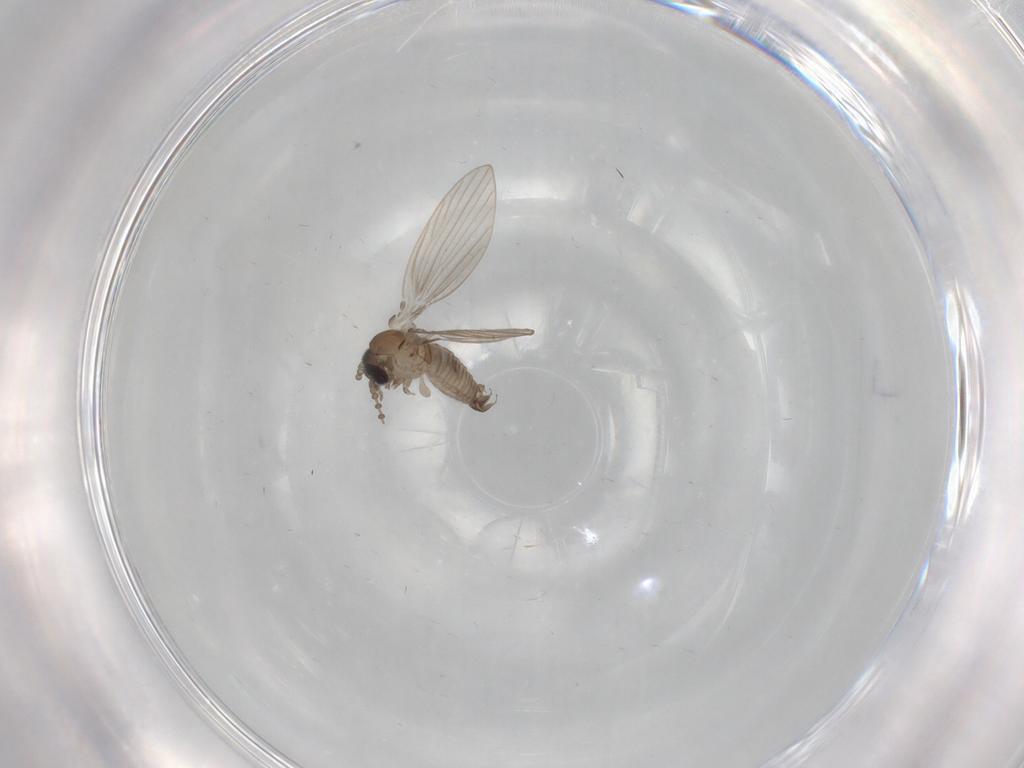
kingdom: Animalia
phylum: Arthropoda
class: Insecta
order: Diptera
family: Psychodidae
